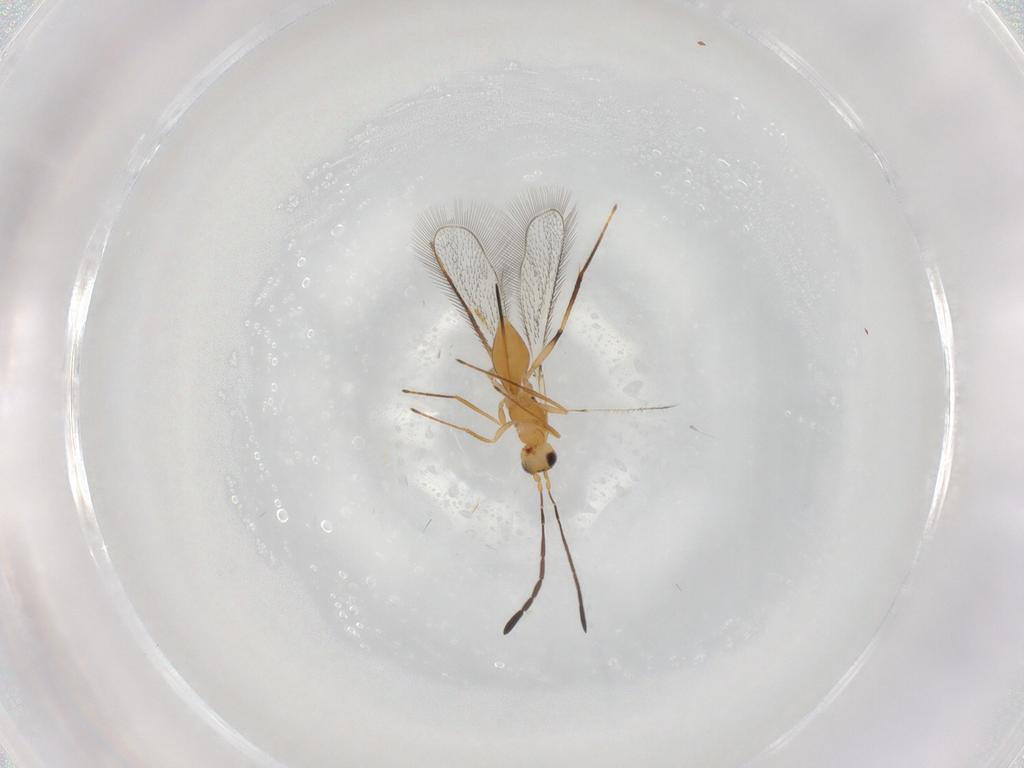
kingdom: Animalia
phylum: Arthropoda
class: Insecta
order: Hymenoptera
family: Mymaridae
